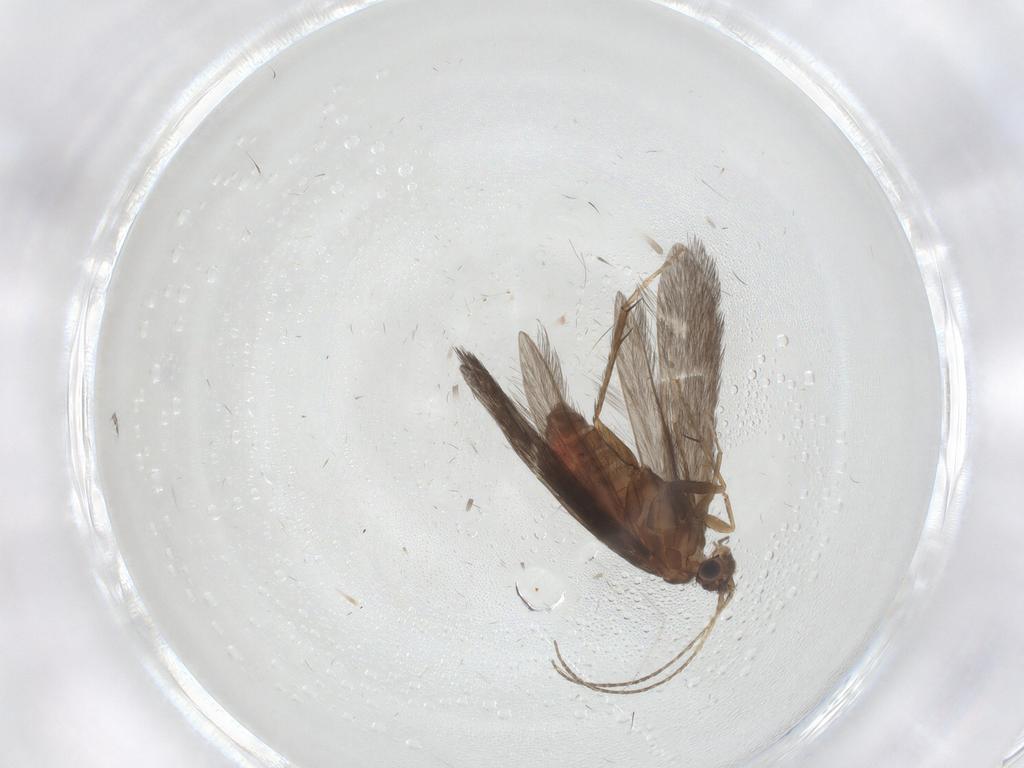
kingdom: Animalia
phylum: Arthropoda
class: Insecta
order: Trichoptera
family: Glossosomatidae
